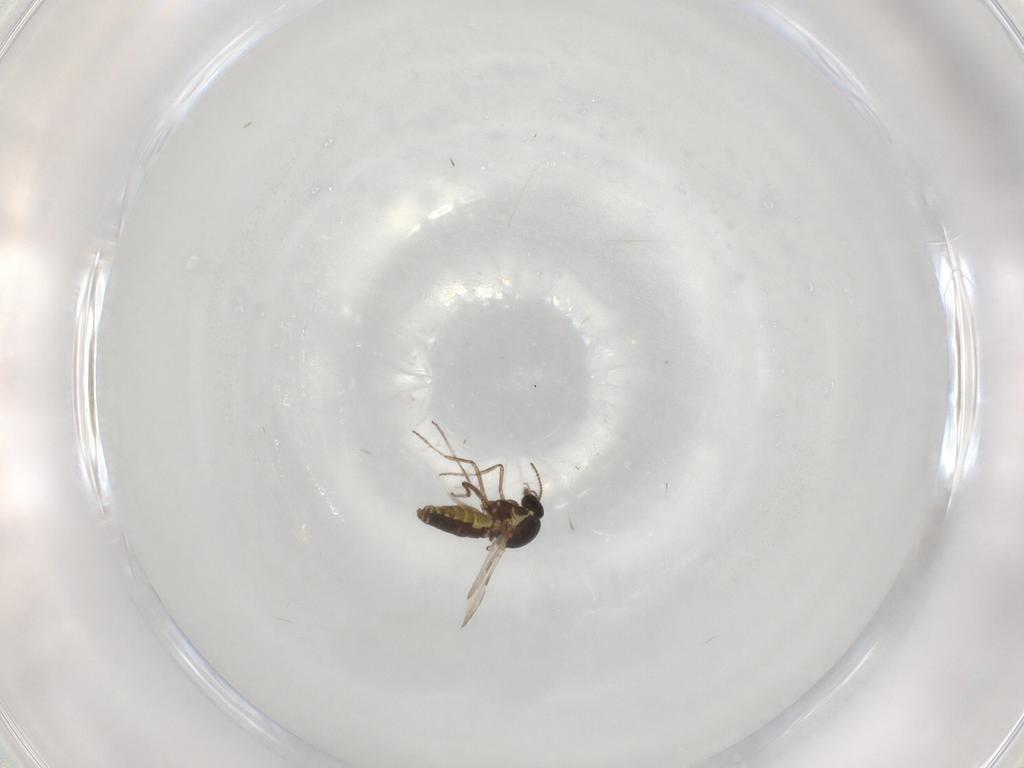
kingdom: Animalia
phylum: Arthropoda
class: Insecta
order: Diptera
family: Ceratopogonidae
